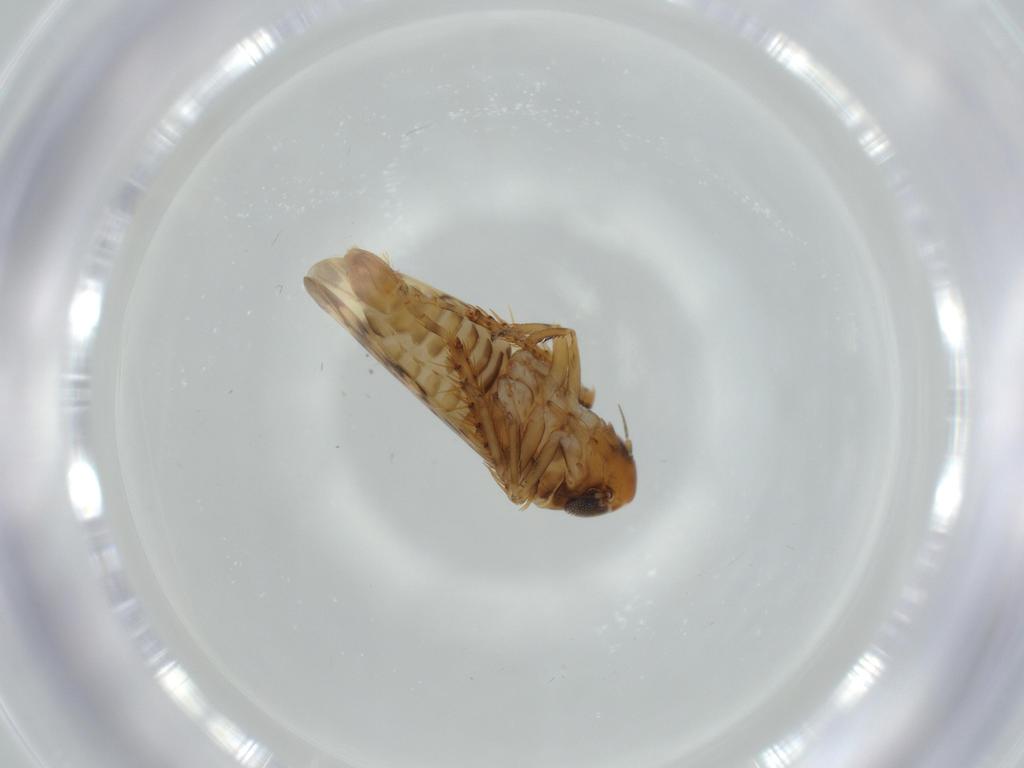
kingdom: Animalia
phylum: Arthropoda
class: Insecta
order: Hemiptera
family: Cicadellidae
